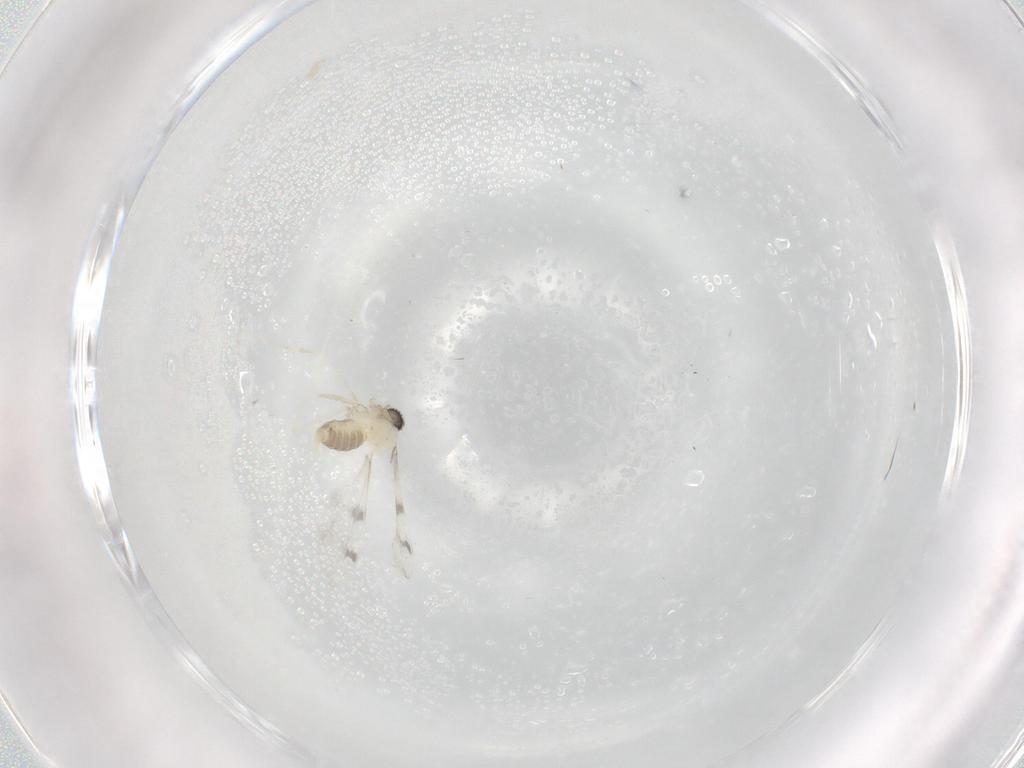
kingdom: Animalia
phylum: Arthropoda
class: Insecta
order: Diptera
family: Cecidomyiidae
